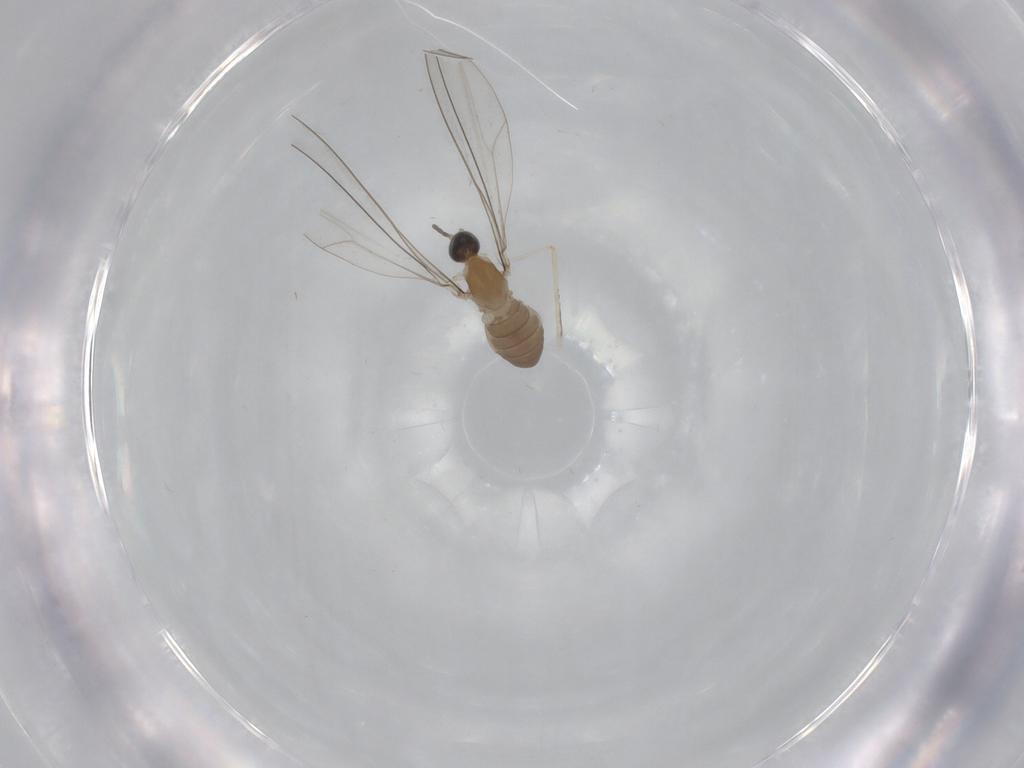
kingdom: Animalia
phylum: Arthropoda
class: Insecta
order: Diptera
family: Cecidomyiidae
